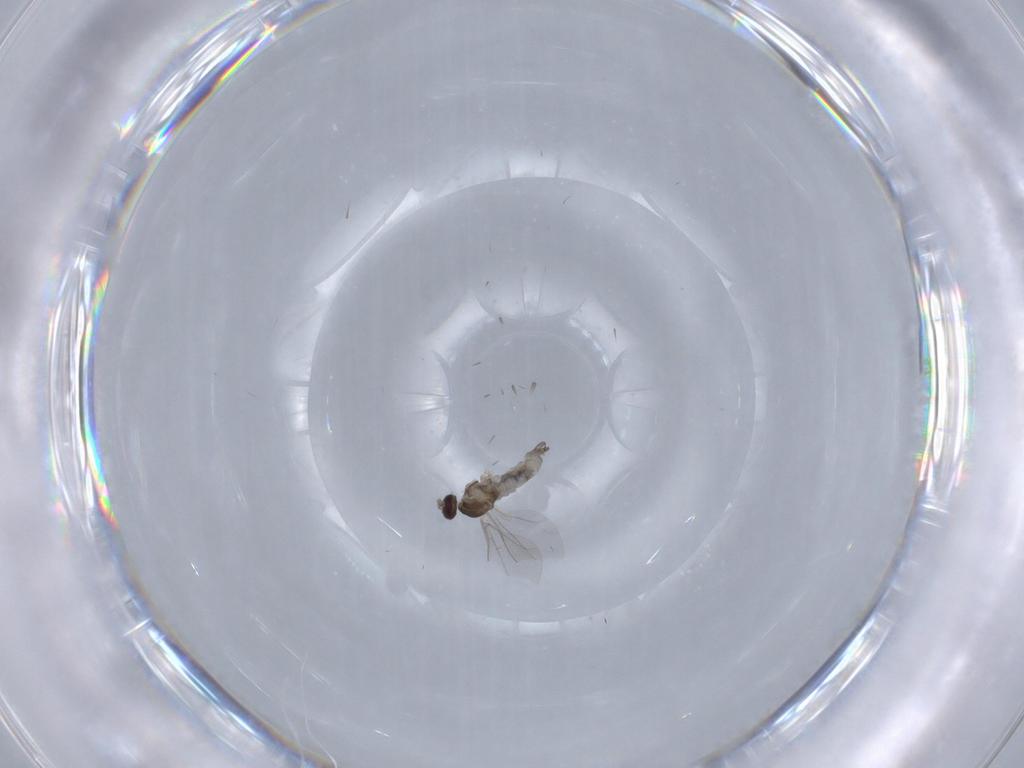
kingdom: Animalia
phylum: Arthropoda
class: Insecta
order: Diptera
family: Cecidomyiidae
